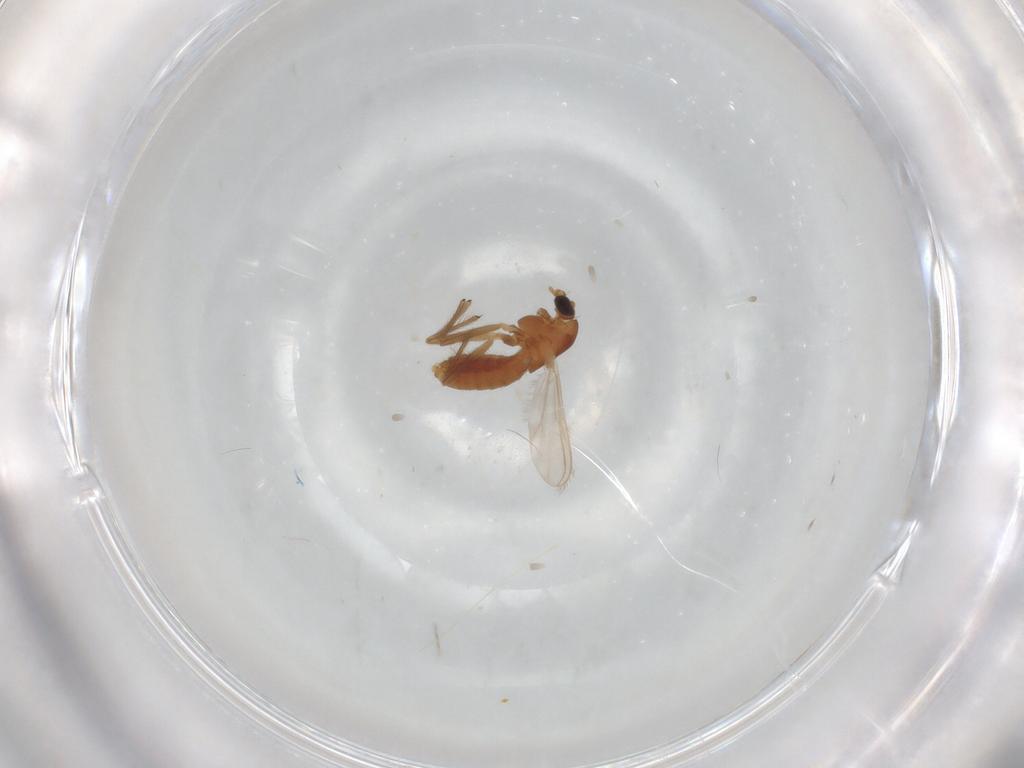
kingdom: Animalia
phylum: Arthropoda
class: Insecta
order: Diptera
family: Chironomidae
